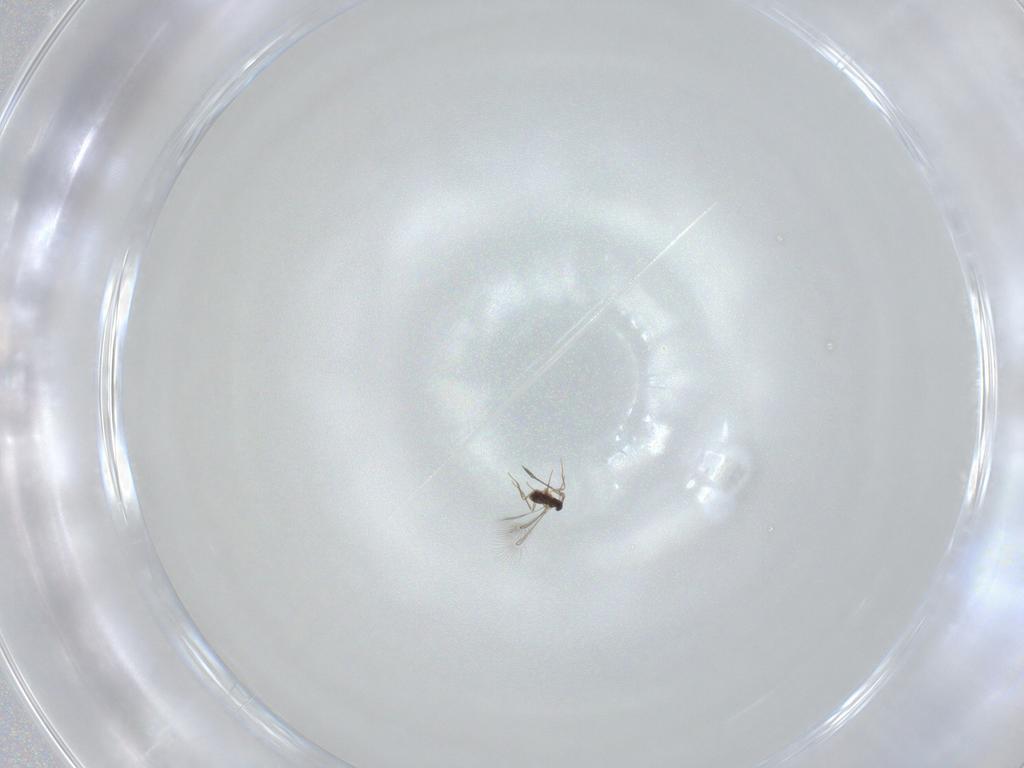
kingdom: Animalia
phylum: Arthropoda
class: Insecta
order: Hymenoptera
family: Mymaridae
